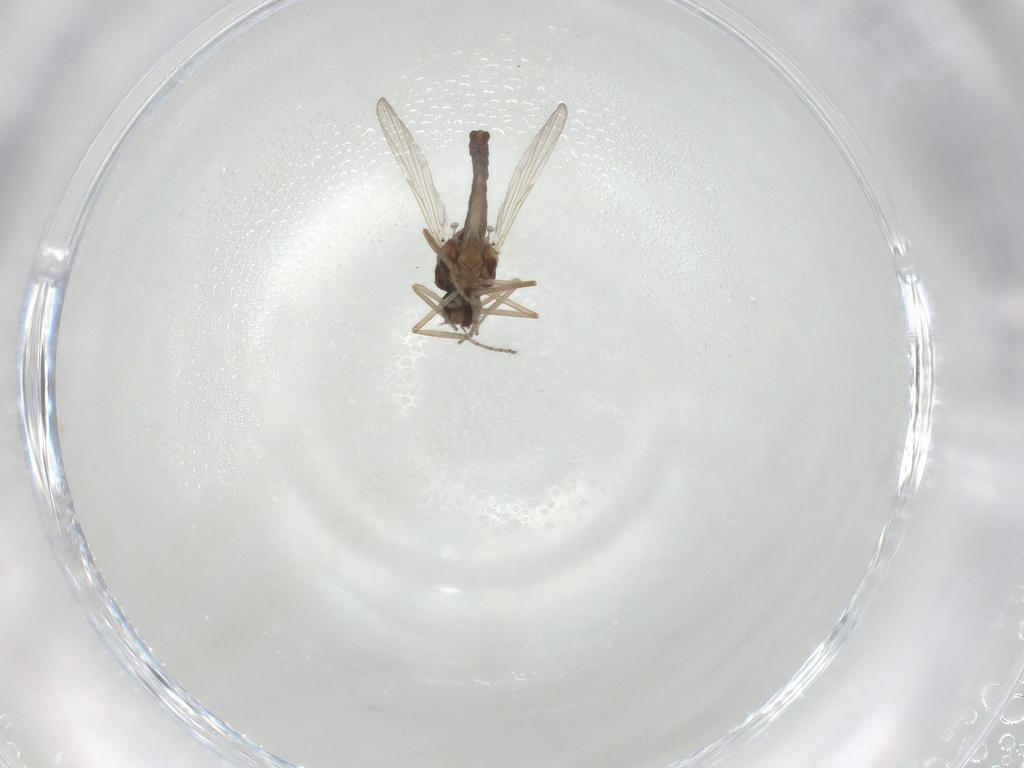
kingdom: Animalia
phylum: Arthropoda
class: Insecta
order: Diptera
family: Ceratopogonidae
